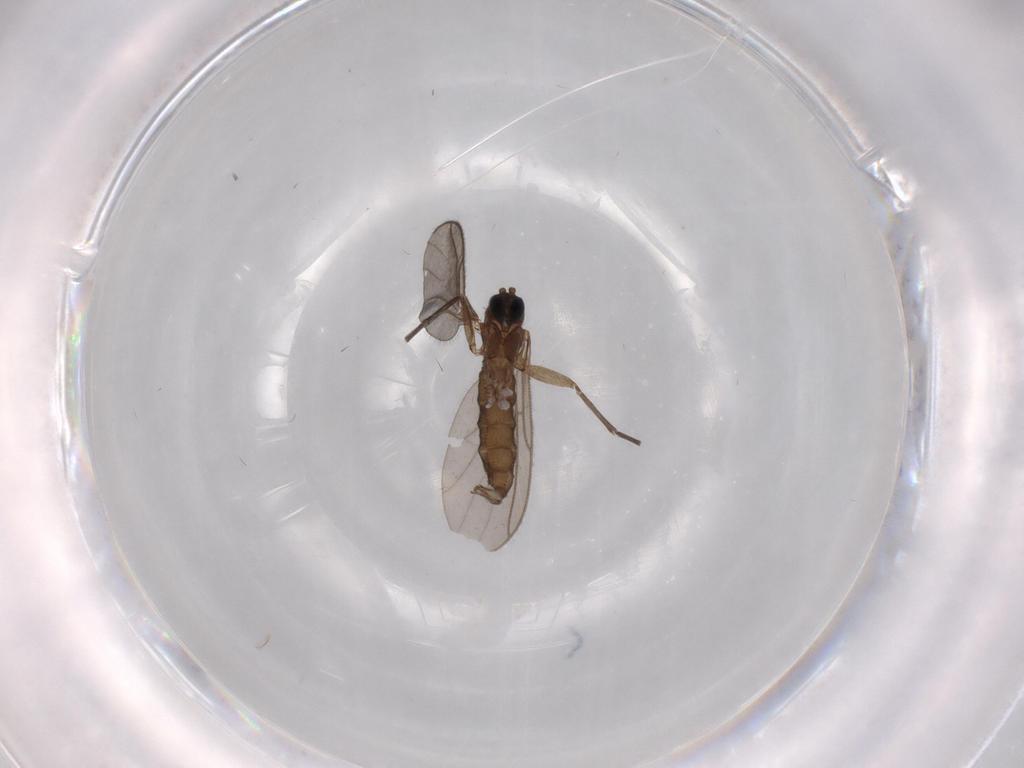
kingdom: Animalia
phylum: Arthropoda
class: Insecta
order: Diptera
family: Sciaridae
